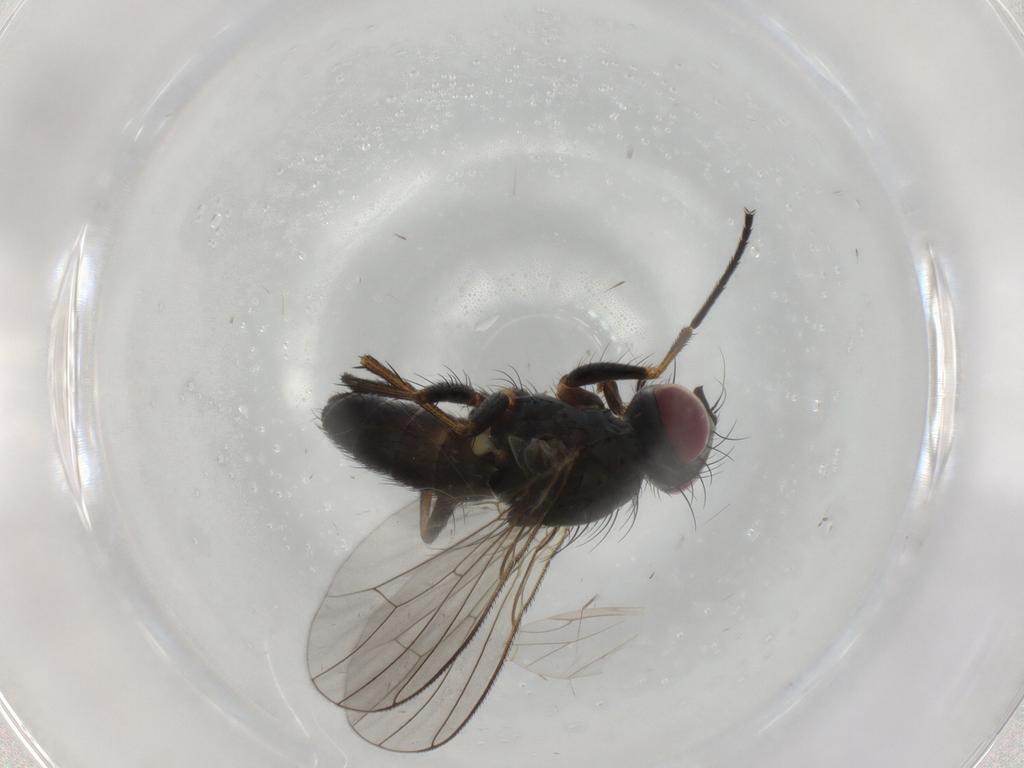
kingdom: Animalia
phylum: Arthropoda
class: Insecta
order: Diptera
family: Muscidae
